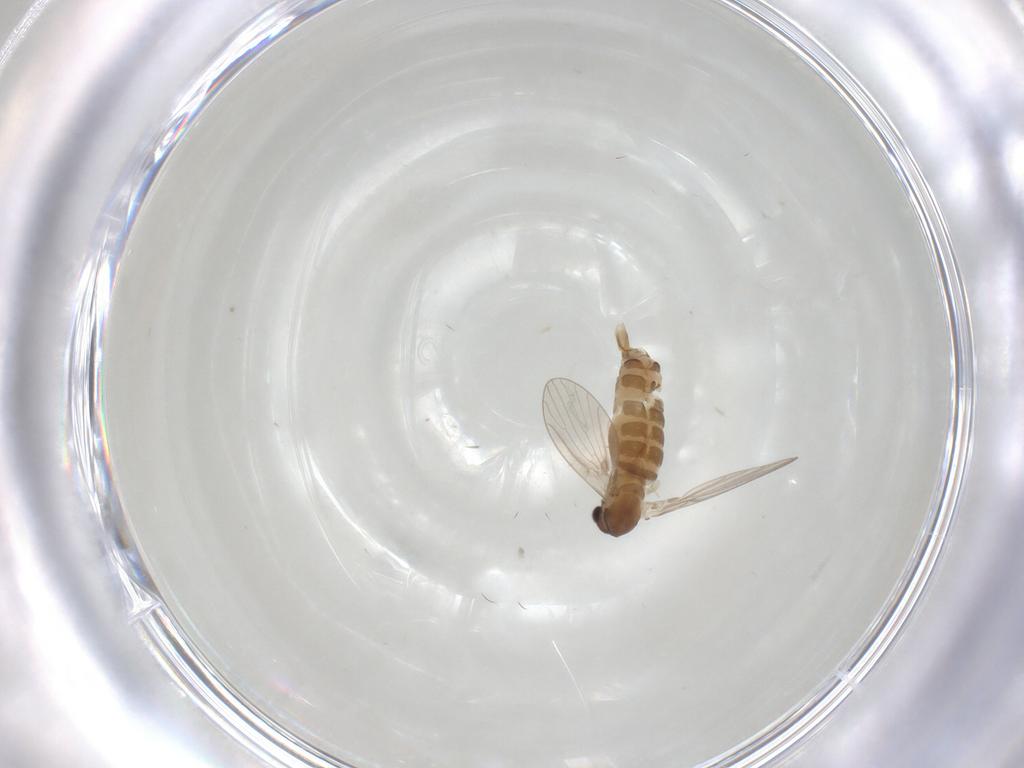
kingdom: Animalia
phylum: Arthropoda
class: Insecta
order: Diptera
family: Psychodidae
